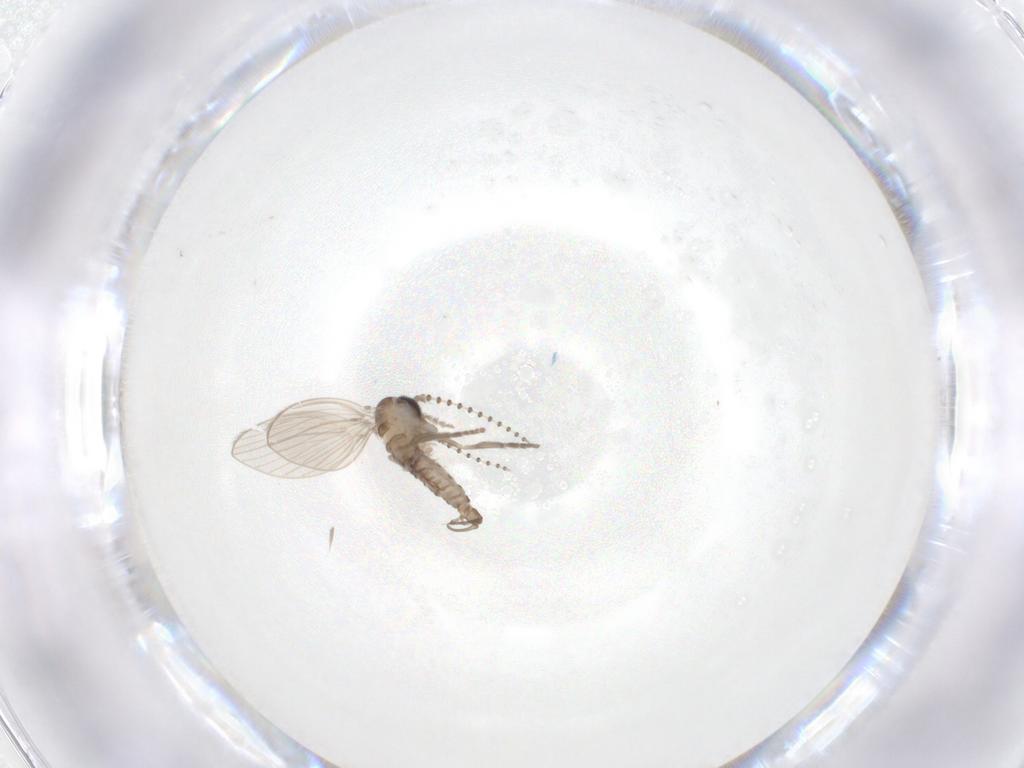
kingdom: Animalia
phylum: Arthropoda
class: Insecta
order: Diptera
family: Psychodidae
